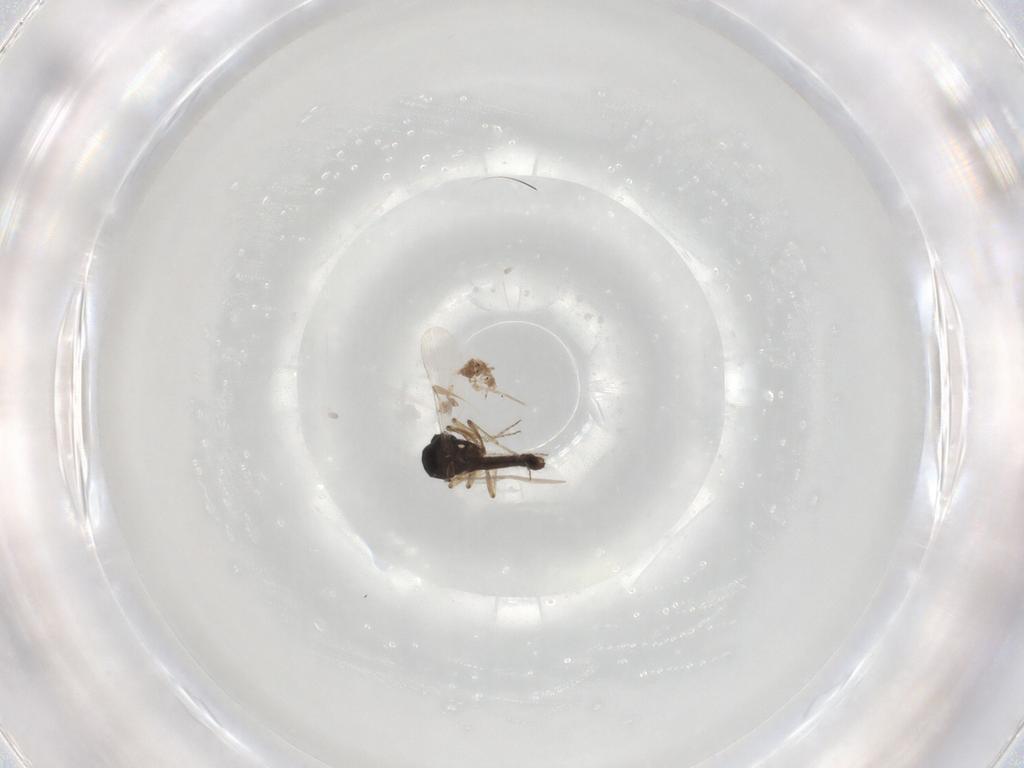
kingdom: Animalia
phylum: Arthropoda
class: Insecta
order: Diptera
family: Ceratopogonidae
